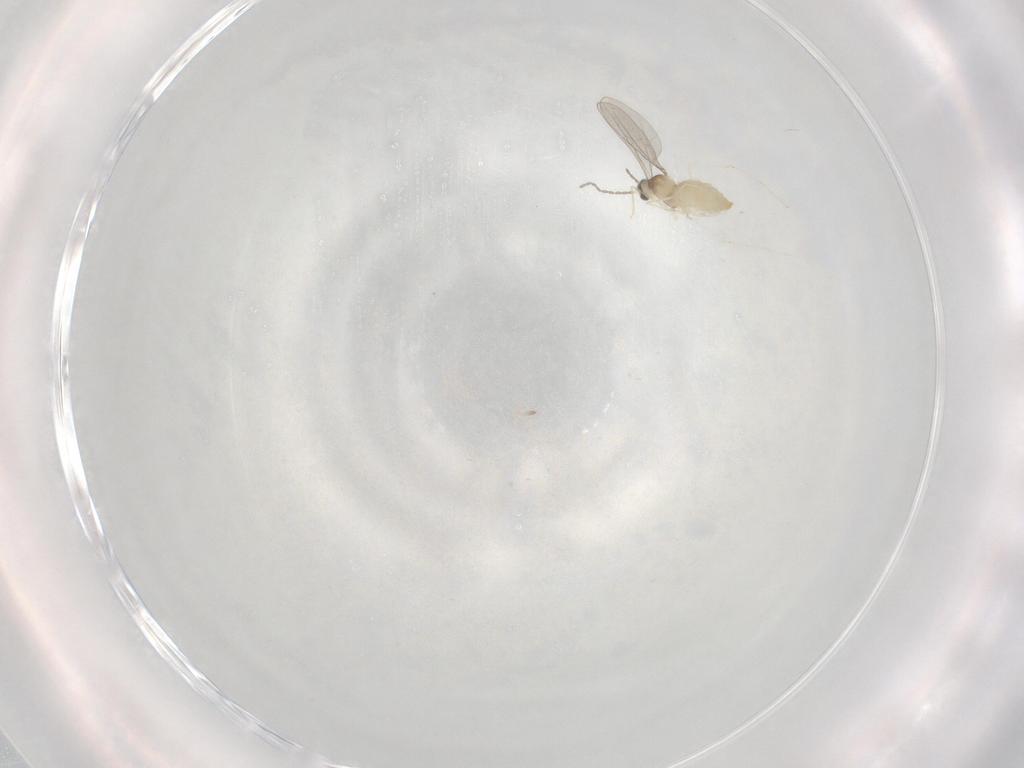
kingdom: Animalia
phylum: Arthropoda
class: Insecta
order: Diptera
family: Cecidomyiidae
